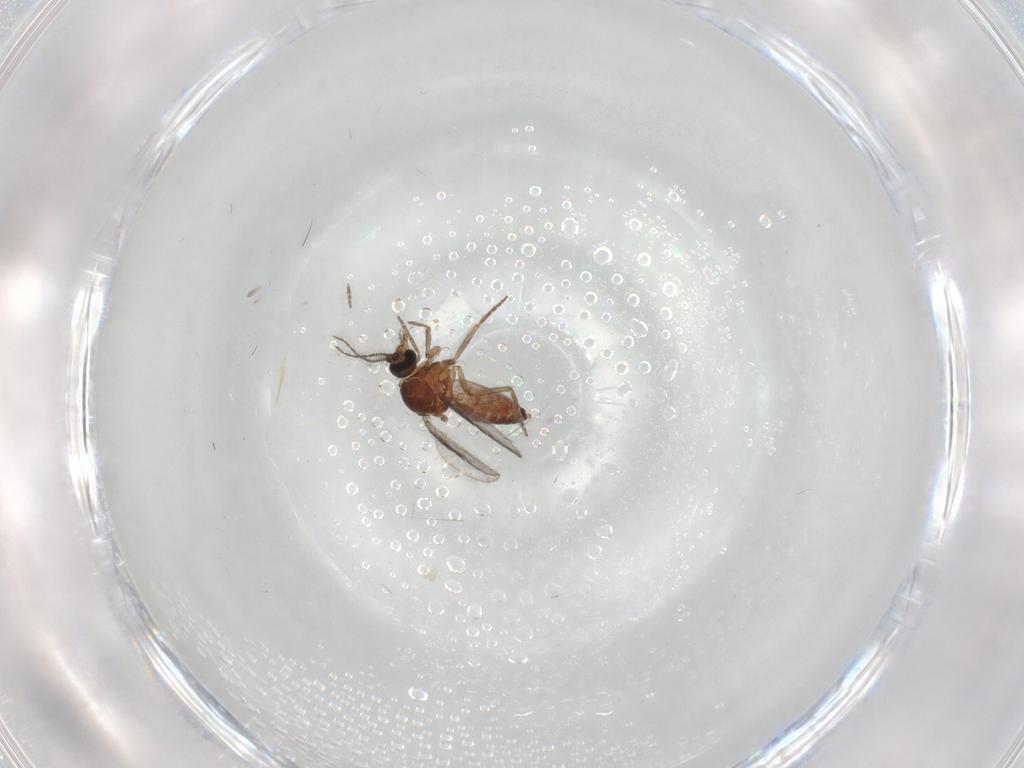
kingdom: Animalia
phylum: Arthropoda
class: Insecta
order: Diptera
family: Ceratopogonidae
